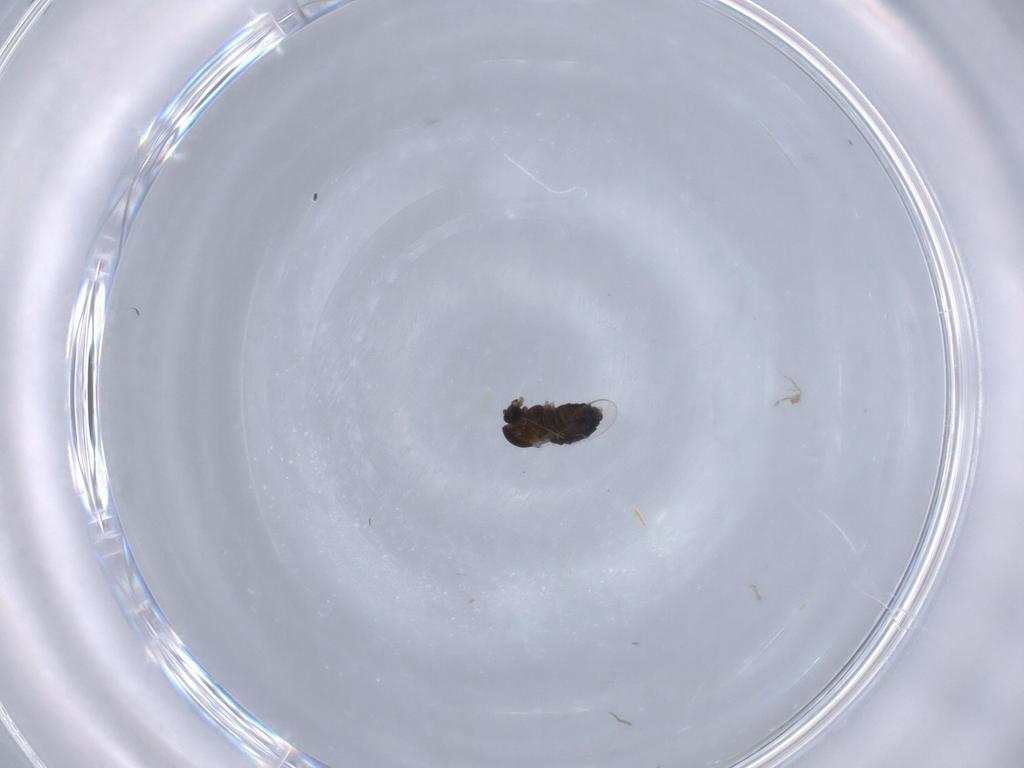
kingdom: Animalia
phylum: Arthropoda
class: Insecta
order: Diptera
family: Chironomidae
